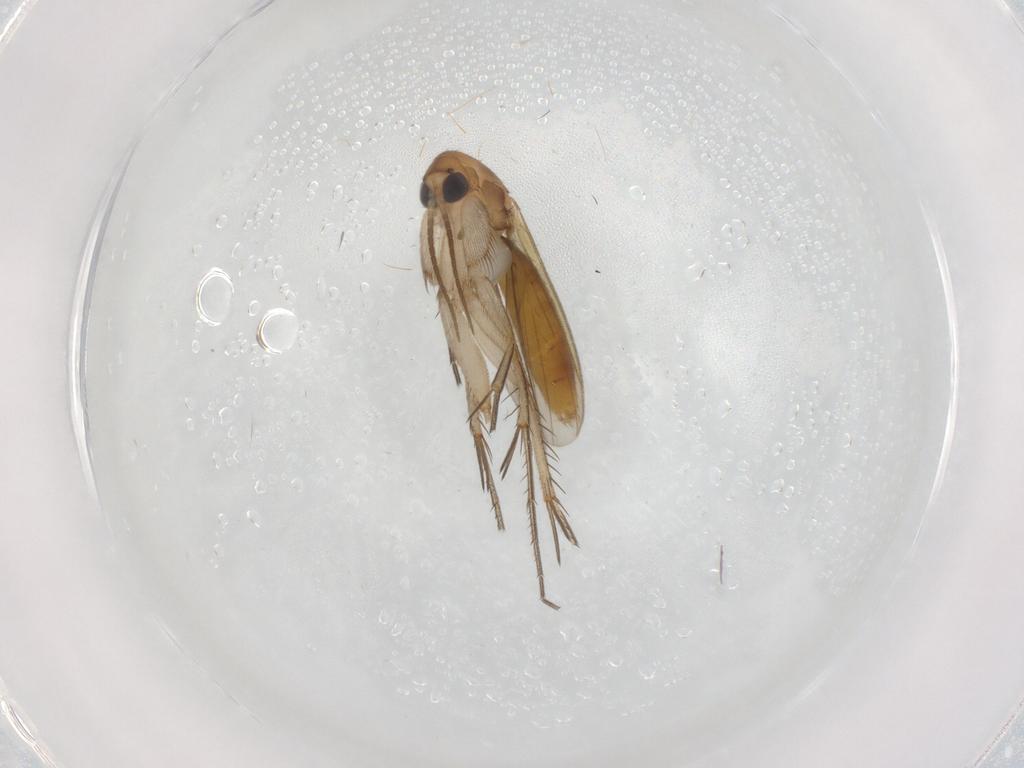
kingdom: Animalia
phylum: Arthropoda
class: Insecta
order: Diptera
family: Mycetophilidae
